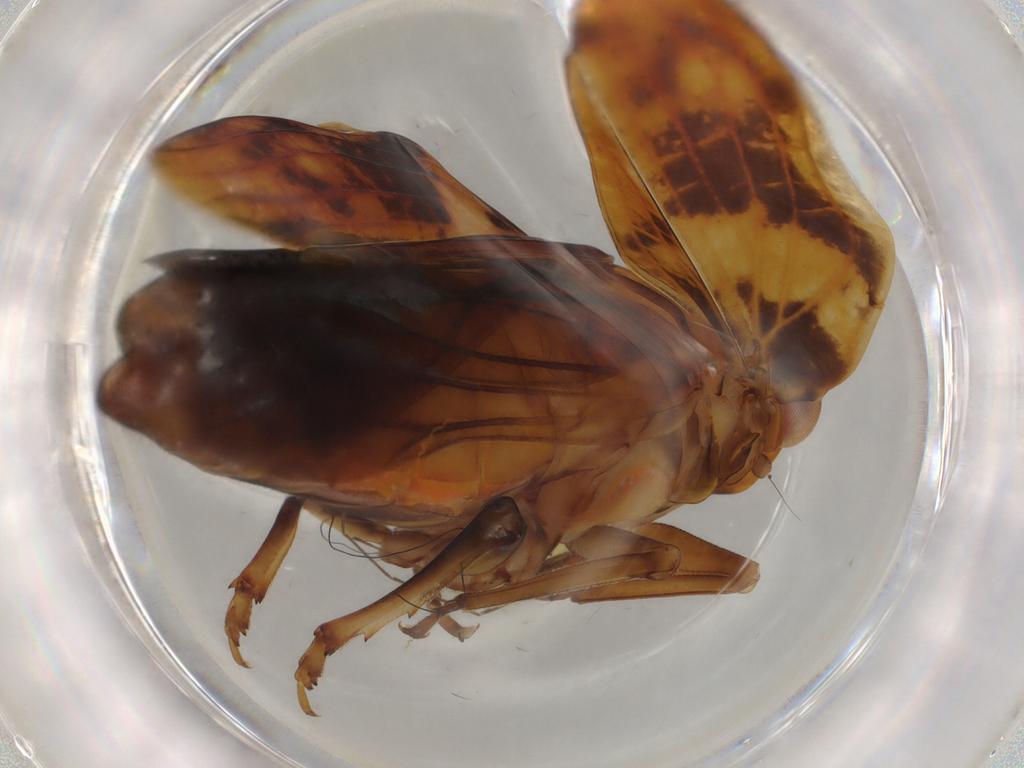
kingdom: Animalia
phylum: Arthropoda
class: Insecta
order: Hemiptera
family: Cicadellidae
